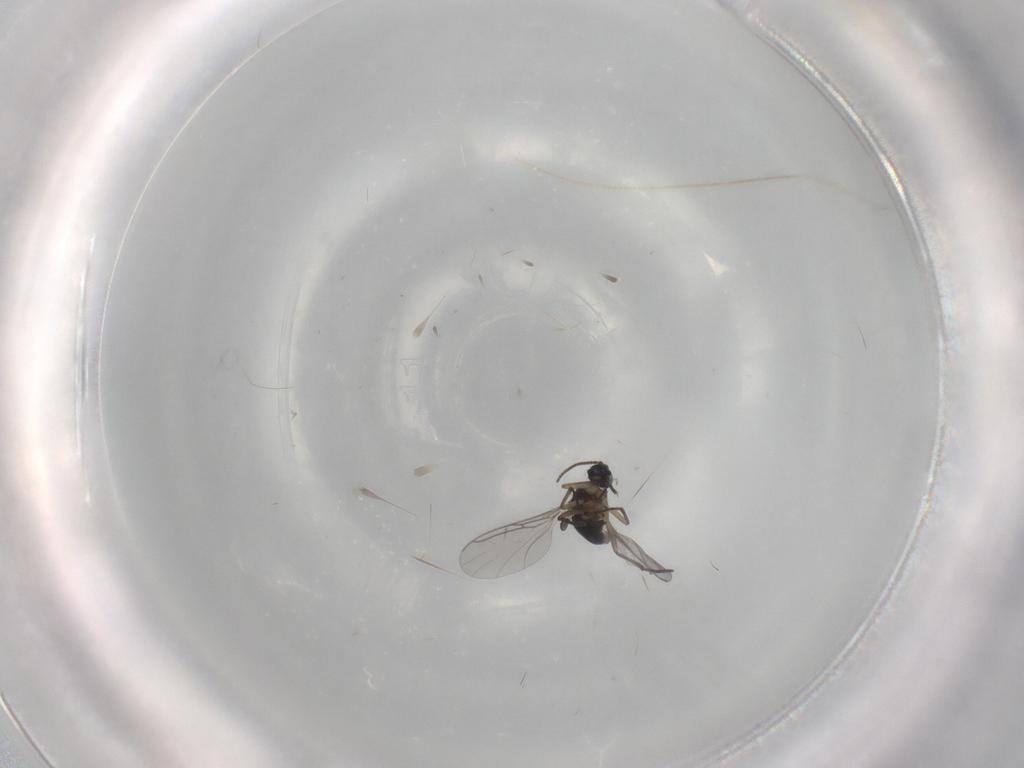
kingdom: Animalia
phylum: Arthropoda
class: Insecta
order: Diptera
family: Sciaridae
